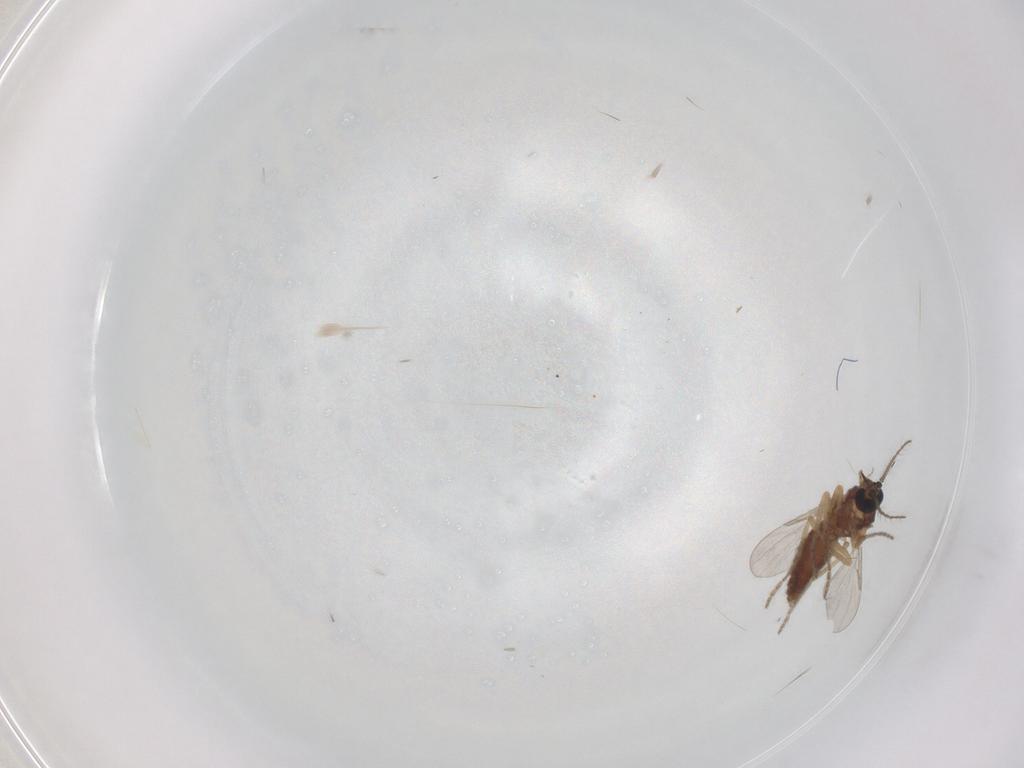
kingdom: Animalia
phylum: Arthropoda
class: Insecta
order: Diptera
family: Ceratopogonidae
